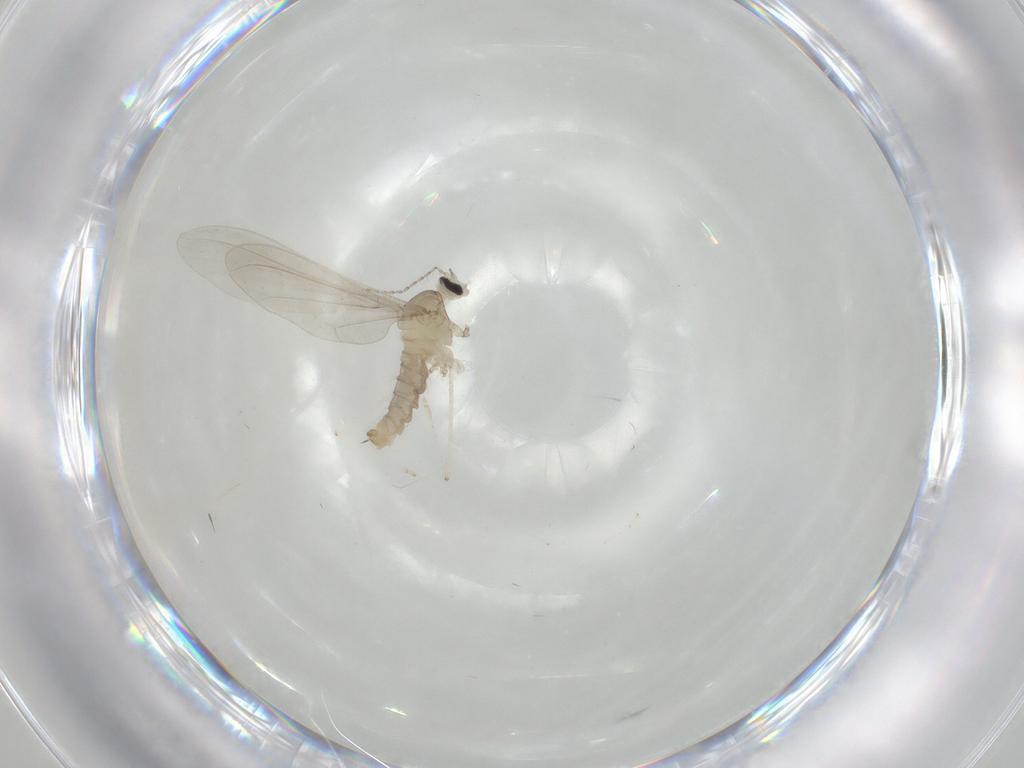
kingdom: Animalia
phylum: Arthropoda
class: Insecta
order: Diptera
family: Cecidomyiidae
